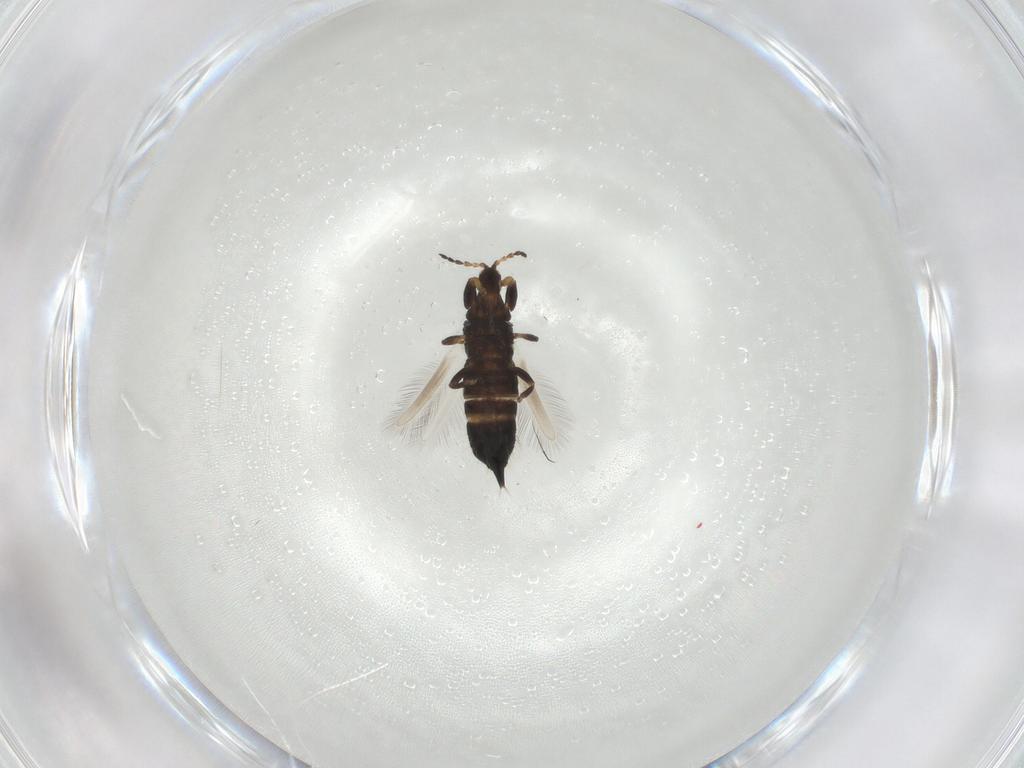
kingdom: Animalia
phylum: Arthropoda
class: Insecta
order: Thysanoptera
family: Phlaeothripidae
